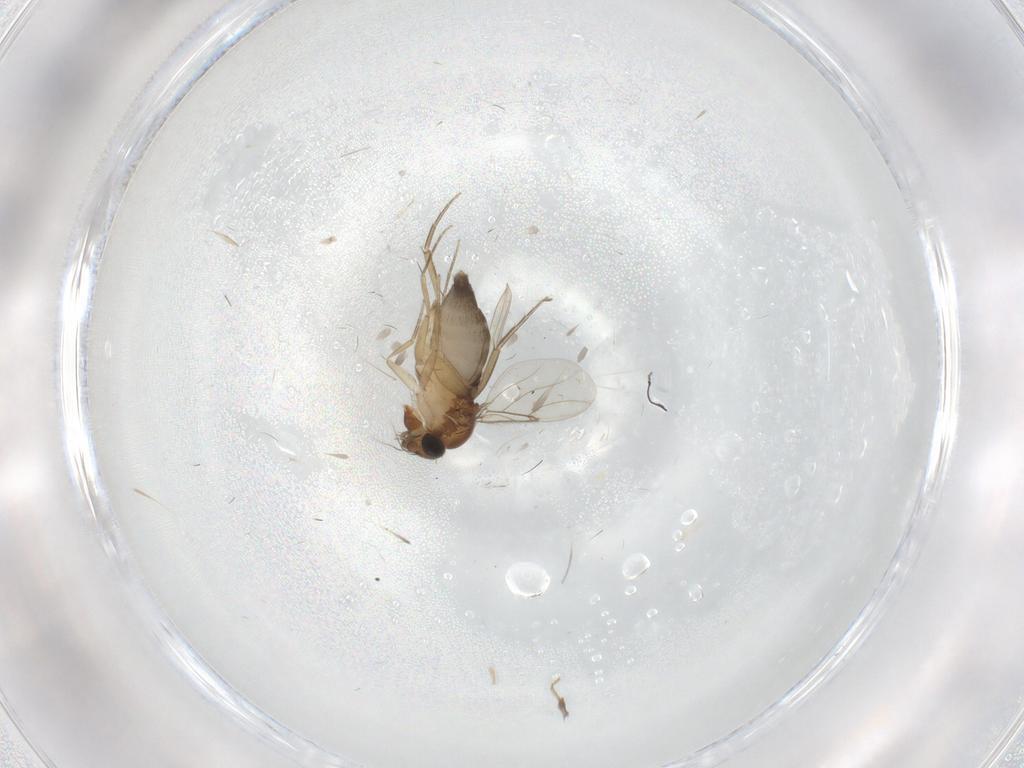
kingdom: Animalia
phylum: Arthropoda
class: Insecta
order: Diptera
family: Phoridae
